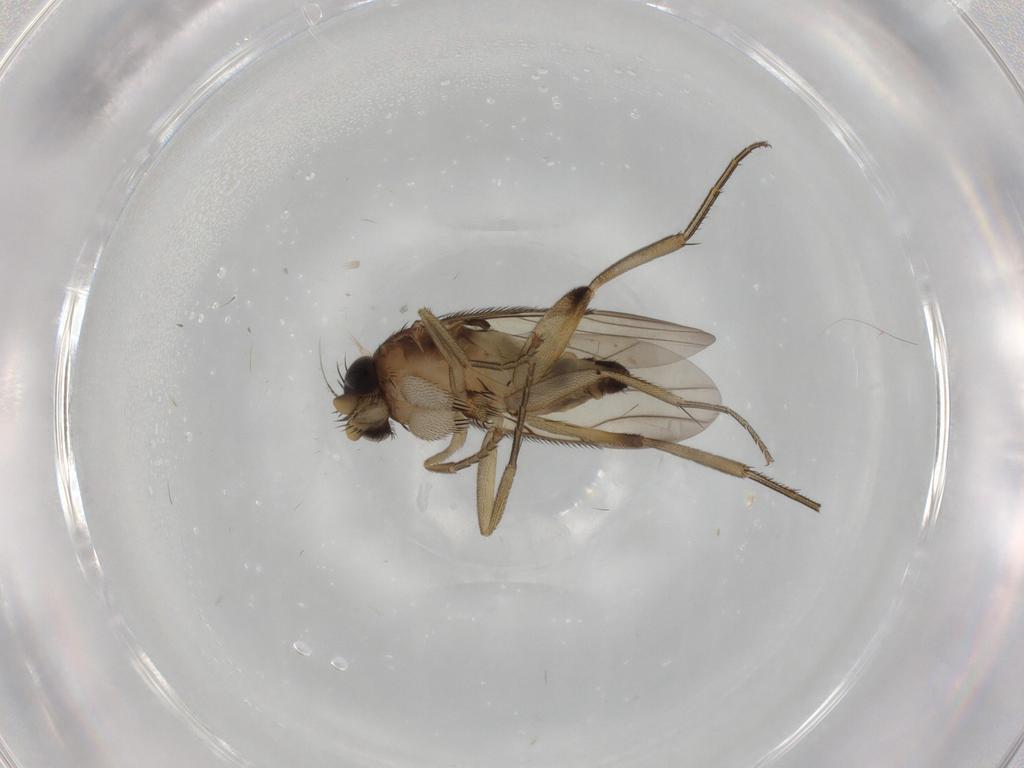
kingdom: Animalia
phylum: Arthropoda
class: Insecta
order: Diptera
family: Phoridae
